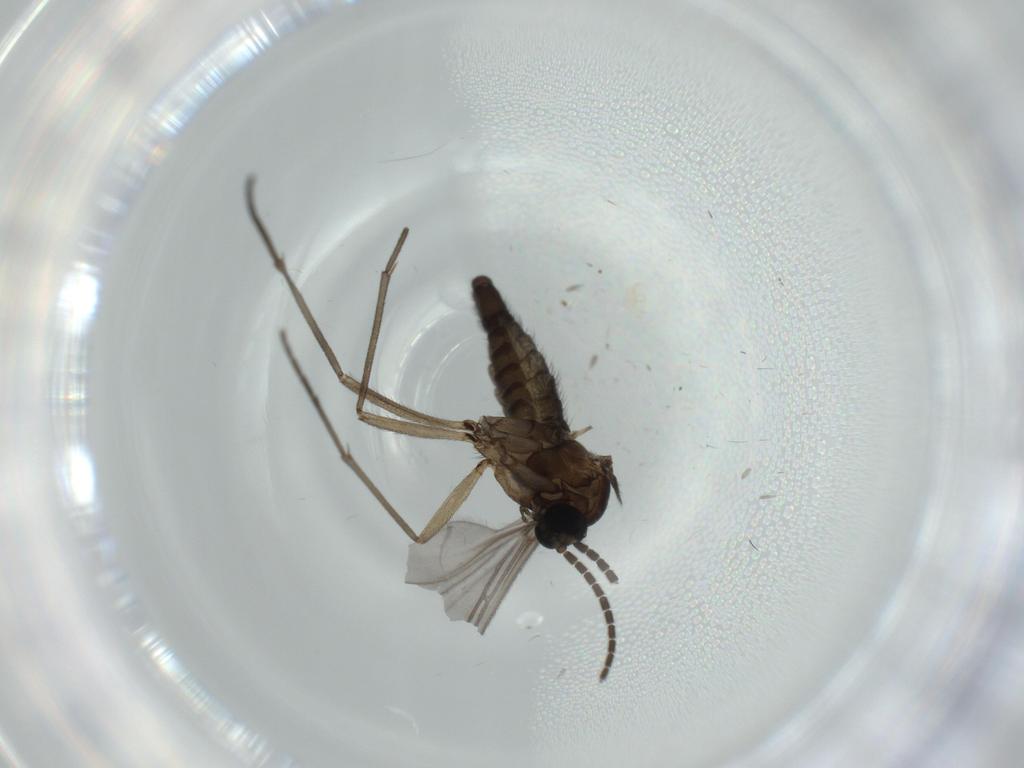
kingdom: Animalia
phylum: Arthropoda
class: Insecta
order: Diptera
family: Sciaridae
